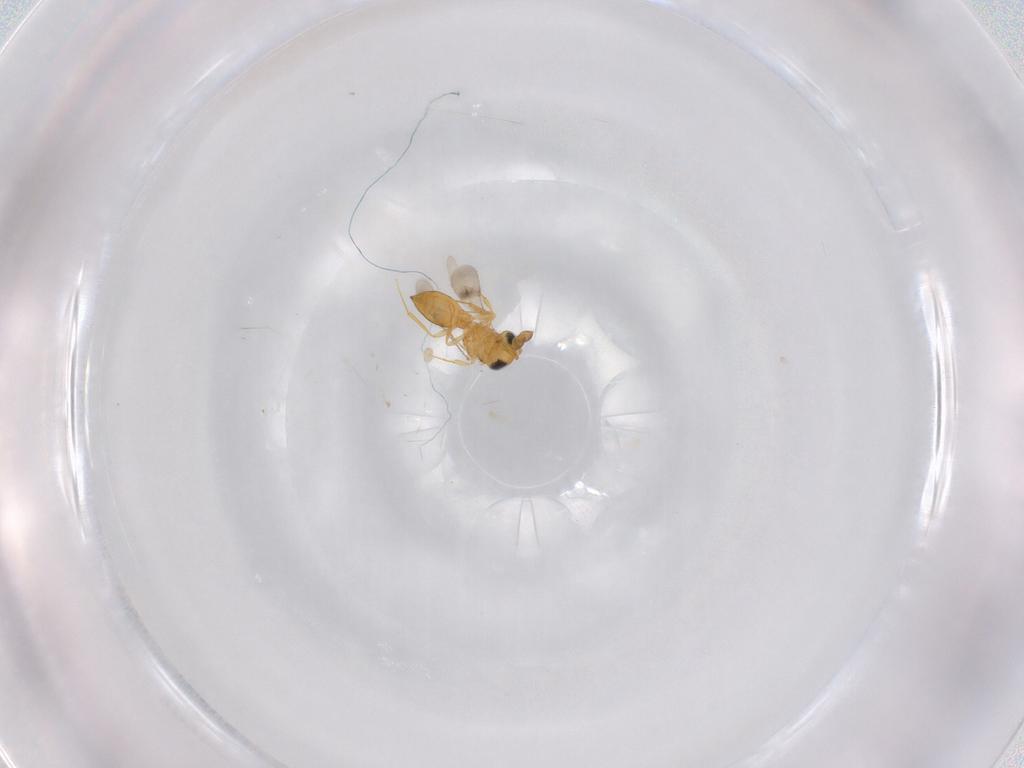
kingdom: Animalia
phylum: Arthropoda
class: Insecta
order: Hymenoptera
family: Scelionidae
